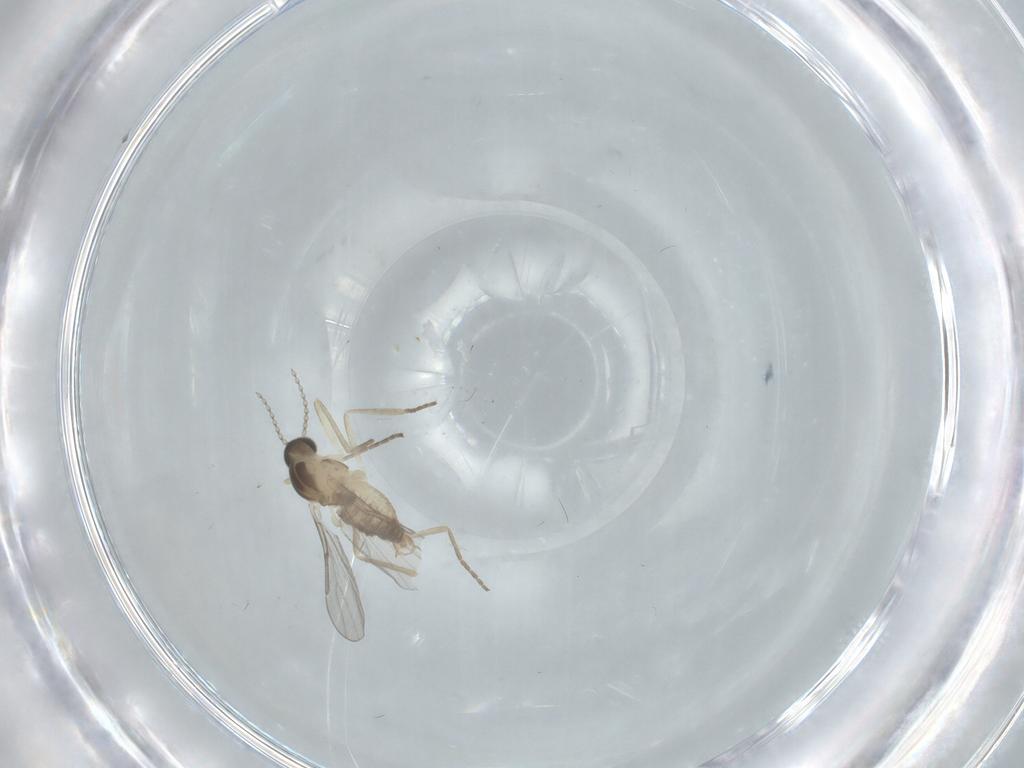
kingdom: Animalia
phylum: Arthropoda
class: Insecta
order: Diptera
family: Cecidomyiidae
